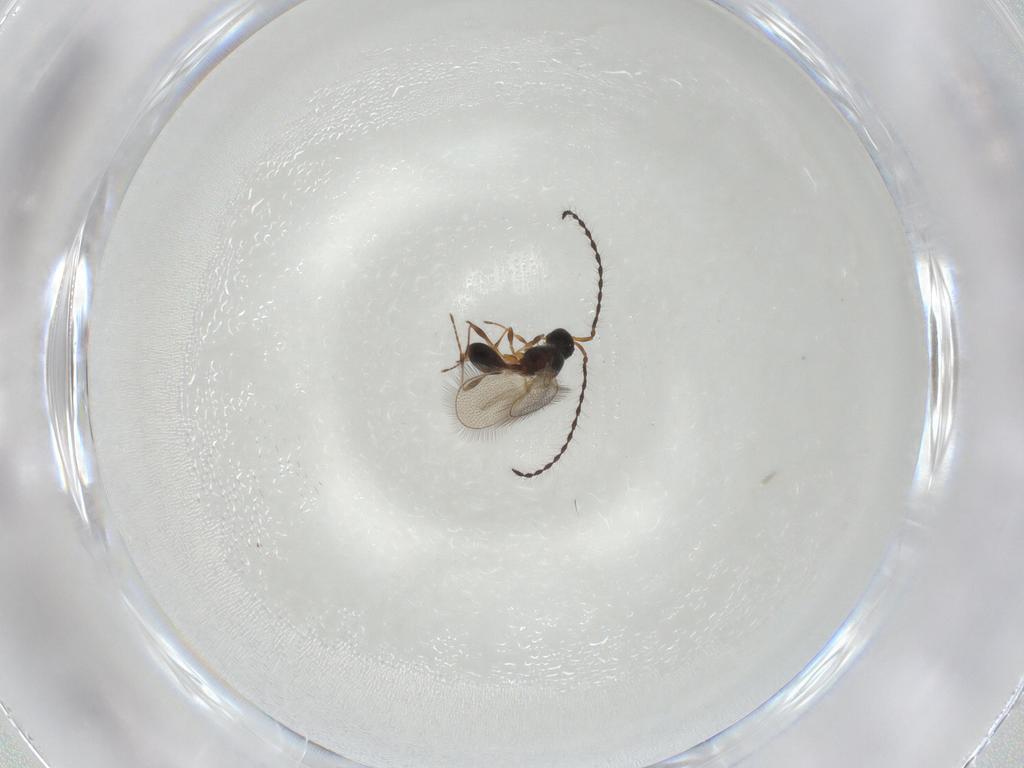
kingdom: Animalia
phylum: Arthropoda
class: Insecta
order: Hymenoptera
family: Diapriidae
